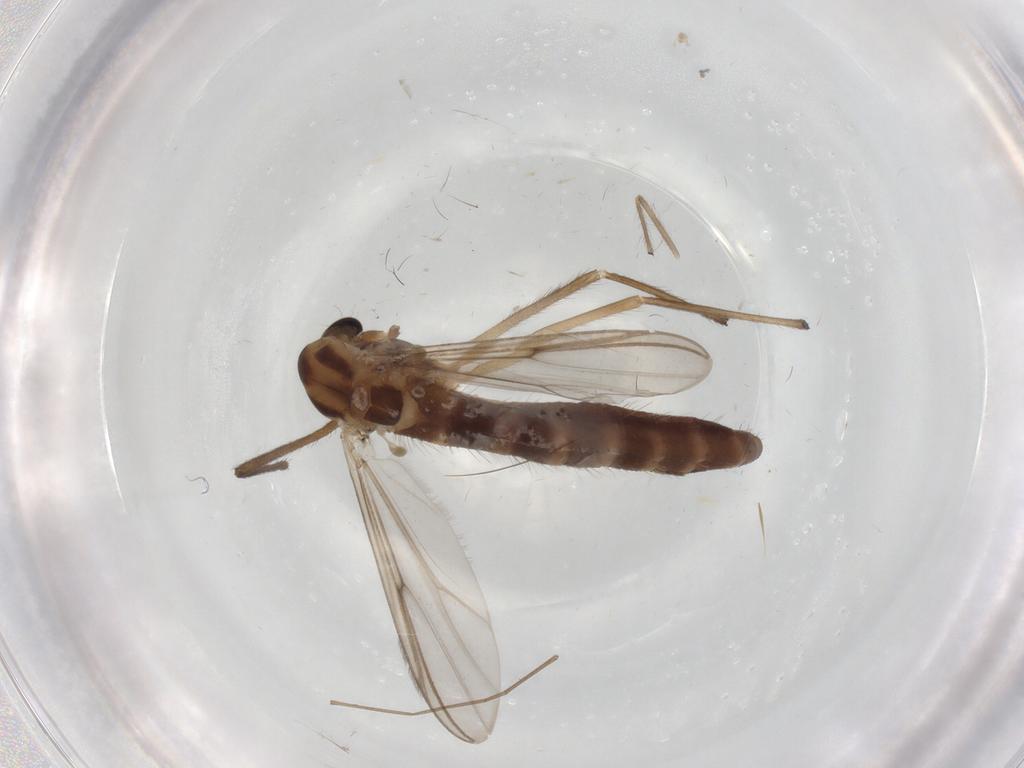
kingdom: Animalia
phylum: Arthropoda
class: Insecta
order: Diptera
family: Chironomidae
